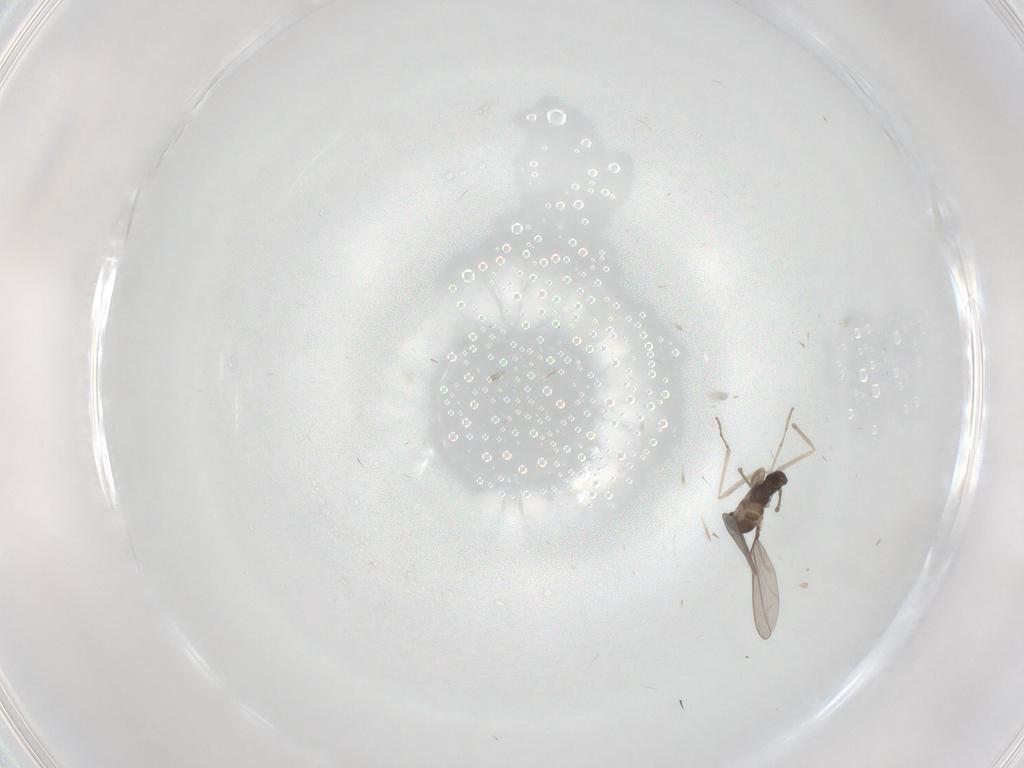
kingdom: Animalia
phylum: Arthropoda
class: Insecta
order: Diptera
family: Cecidomyiidae
